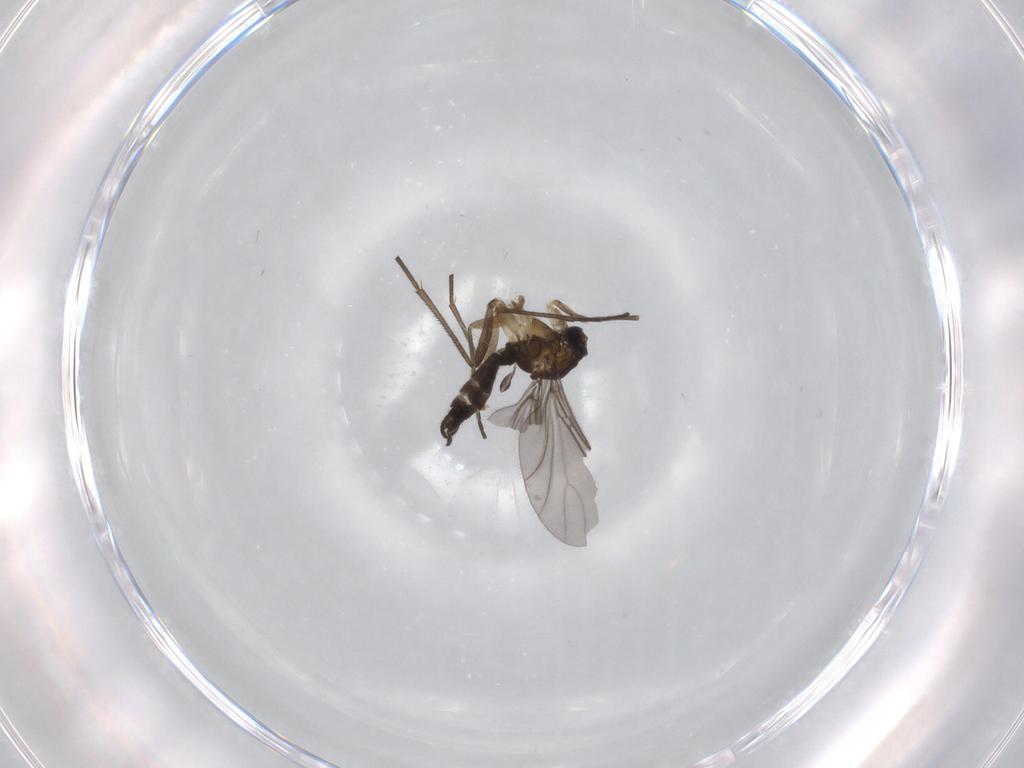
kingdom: Animalia
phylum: Arthropoda
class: Insecta
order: Diptera
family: Sciaridae
